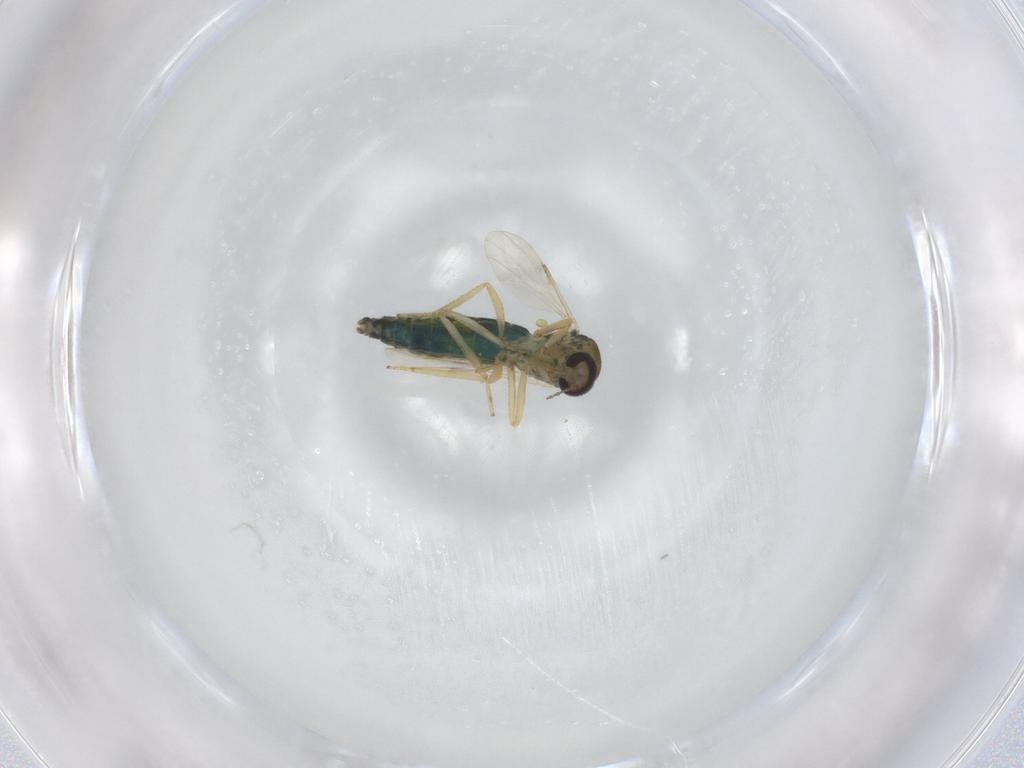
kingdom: Animalia
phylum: Arthropoda
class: Insecta
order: Diptera
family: Ceratopogonidae
